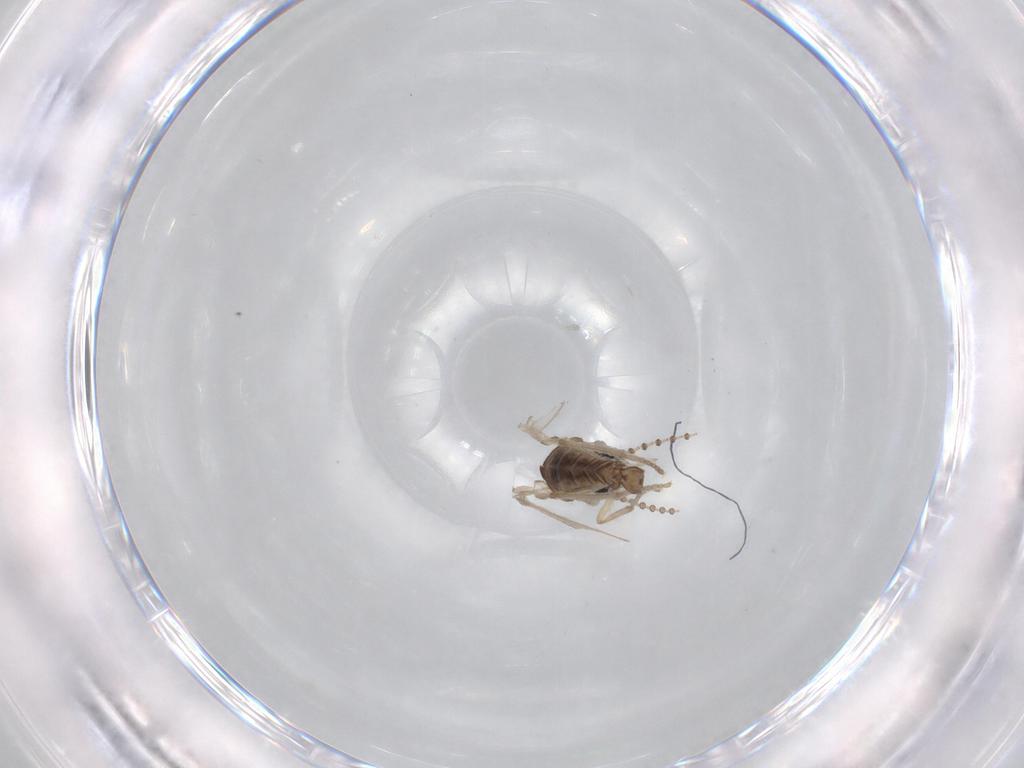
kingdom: Animalia
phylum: Arthropoda
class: Insecta
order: Diptera
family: Psychodidae
